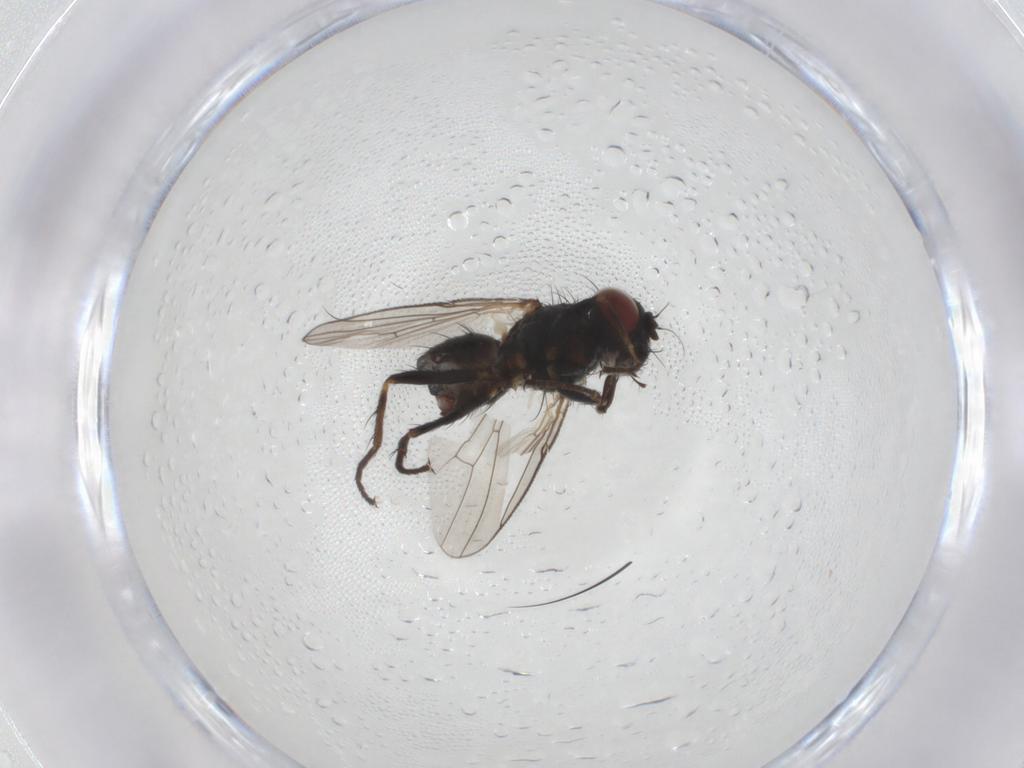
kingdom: Animalia
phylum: Arthropoda
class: Insecta
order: Diptera
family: Muscidae
